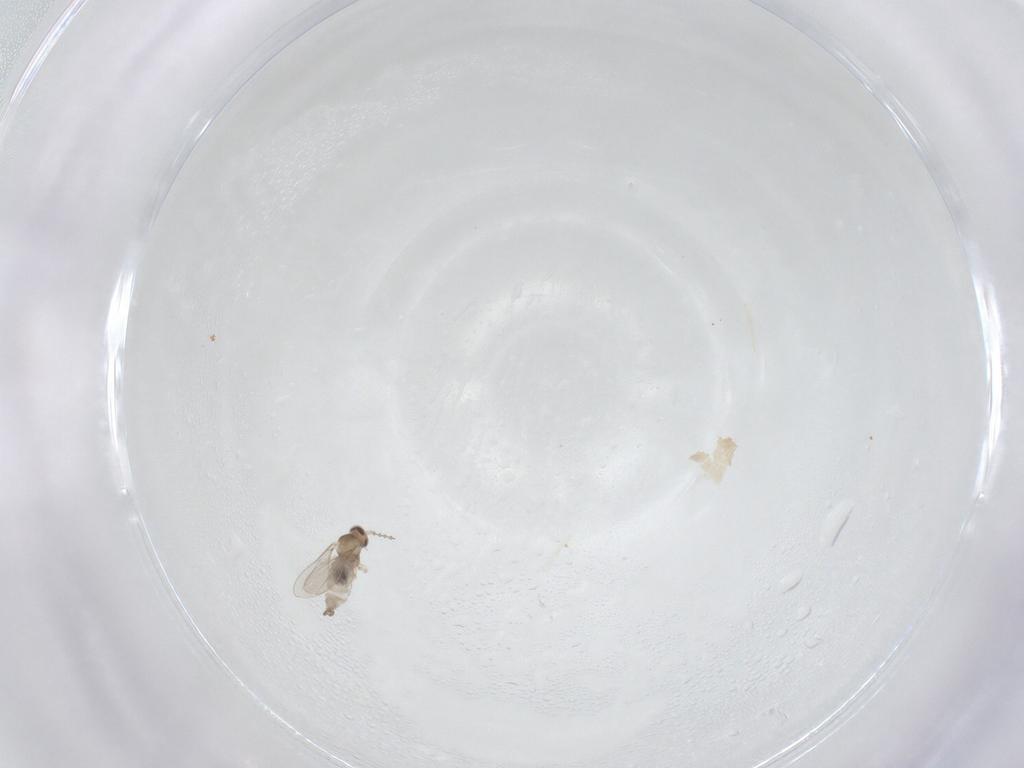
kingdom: Animalia
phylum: Arthropoda
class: Insecta
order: Diptera
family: Cecidomyiidae
